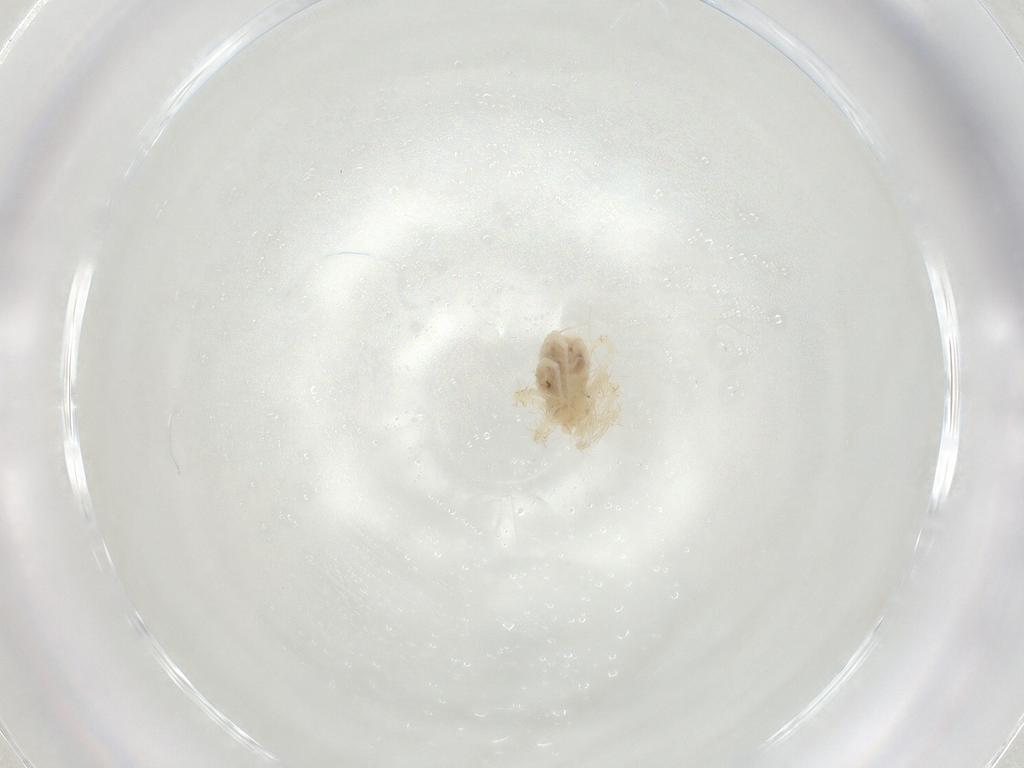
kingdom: Animalia
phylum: Arthropoda
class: Arachnida
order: Trombidiformes
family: Anystidae
